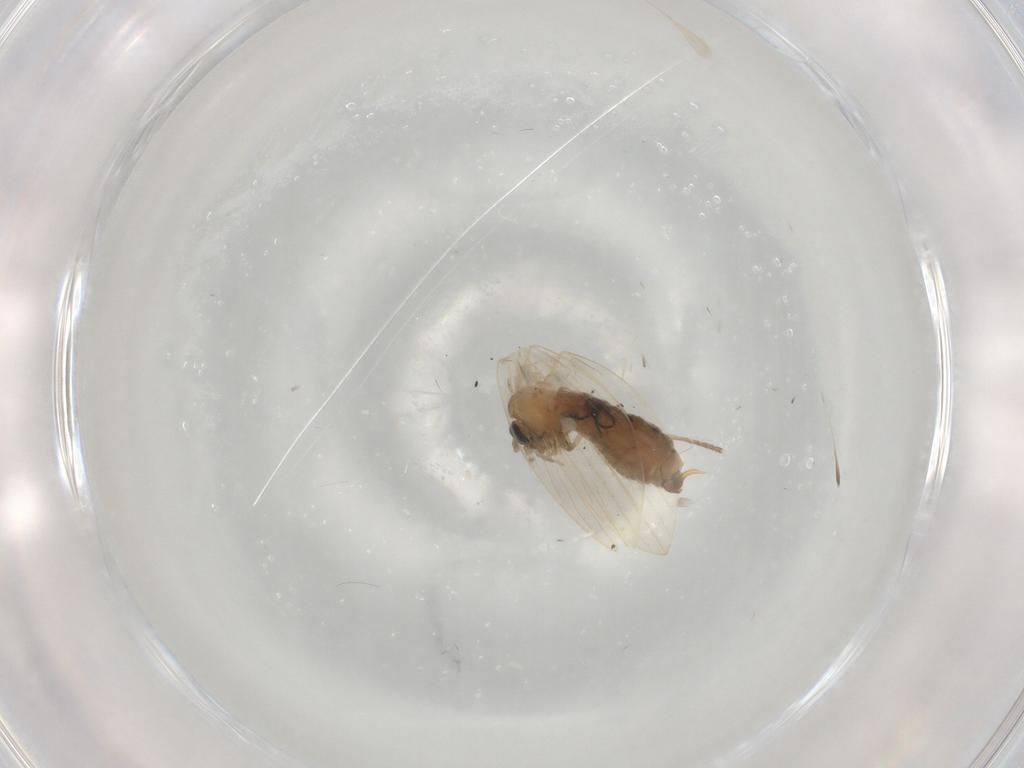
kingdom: Animalia
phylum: Arthropoda
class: Insecta
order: Diptera
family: Psychodidae
